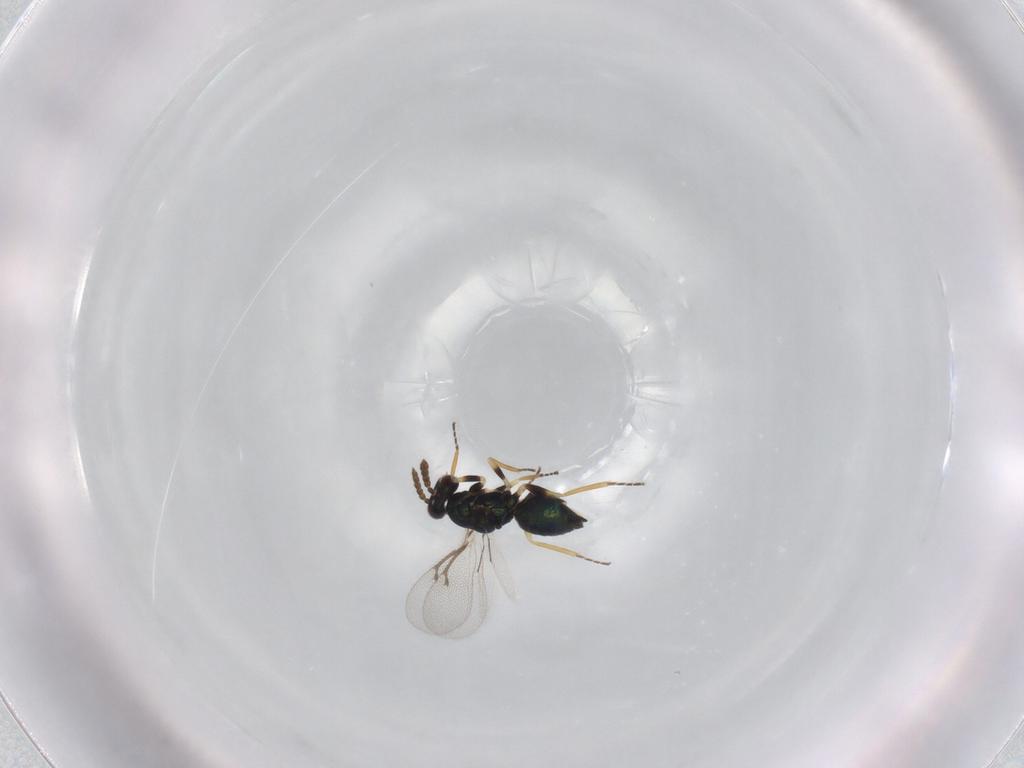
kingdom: Animalia
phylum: Arthropoda
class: Insecta
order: Hymenoptera
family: Eulophidae
